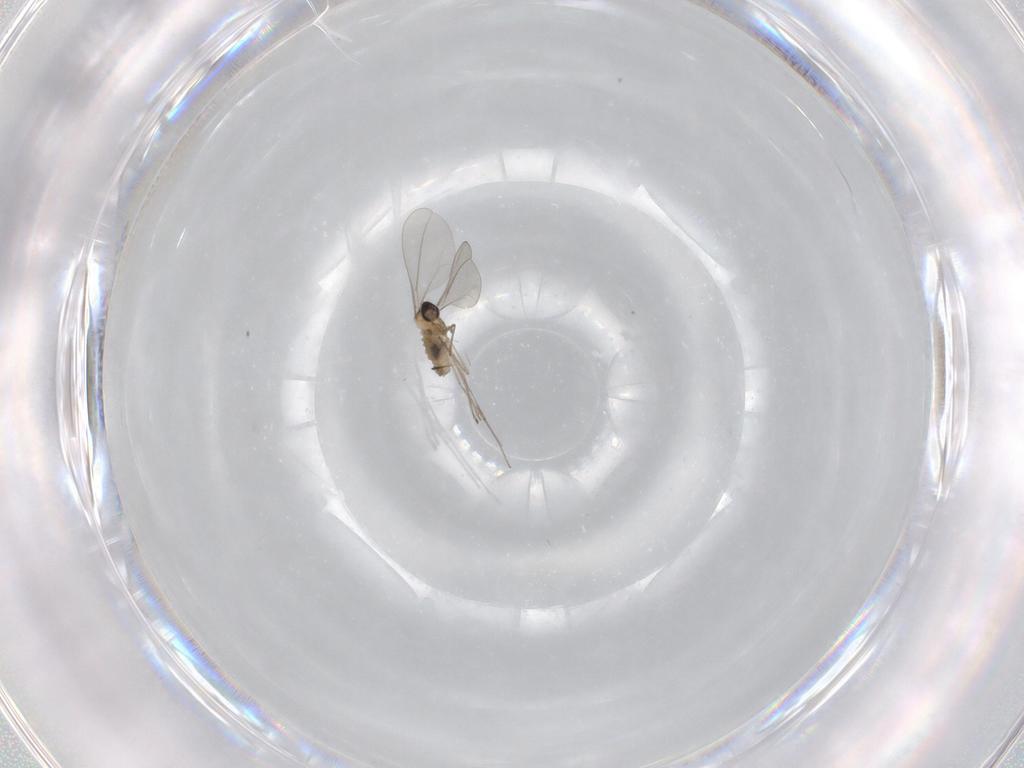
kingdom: Animalia
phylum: Arthropoda
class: Insecta
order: Diptera
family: Cecidomyiidae
